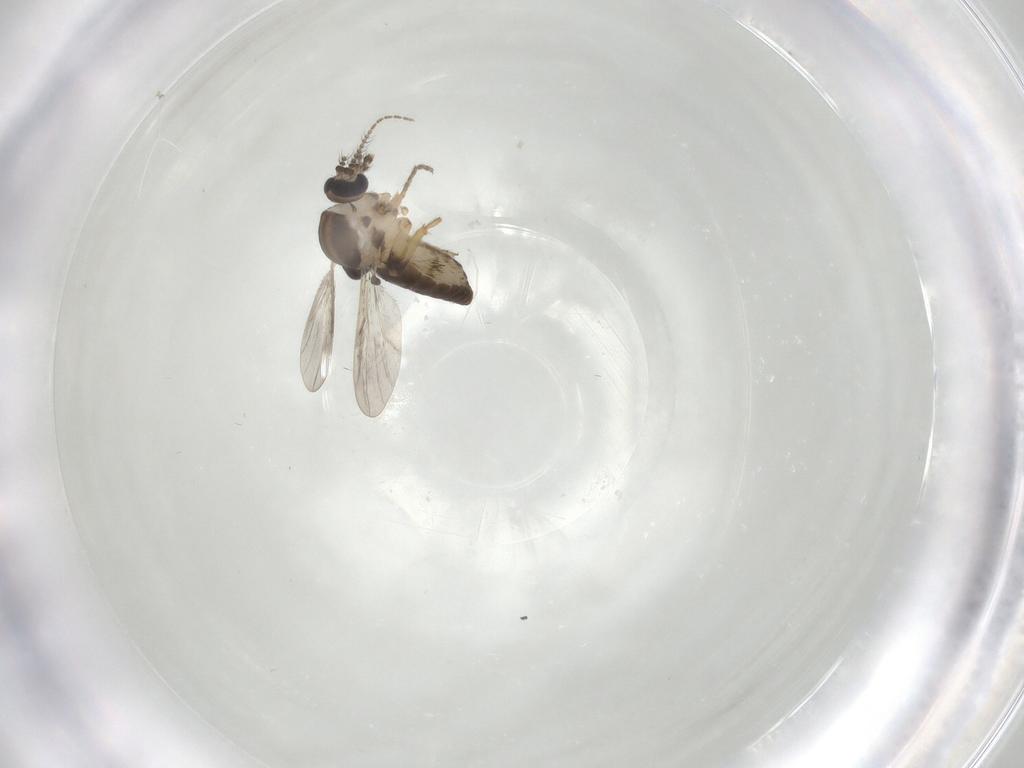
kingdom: Animalia
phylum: Arthropoda
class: Insecta
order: Diptera
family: Ceratopogonidae
